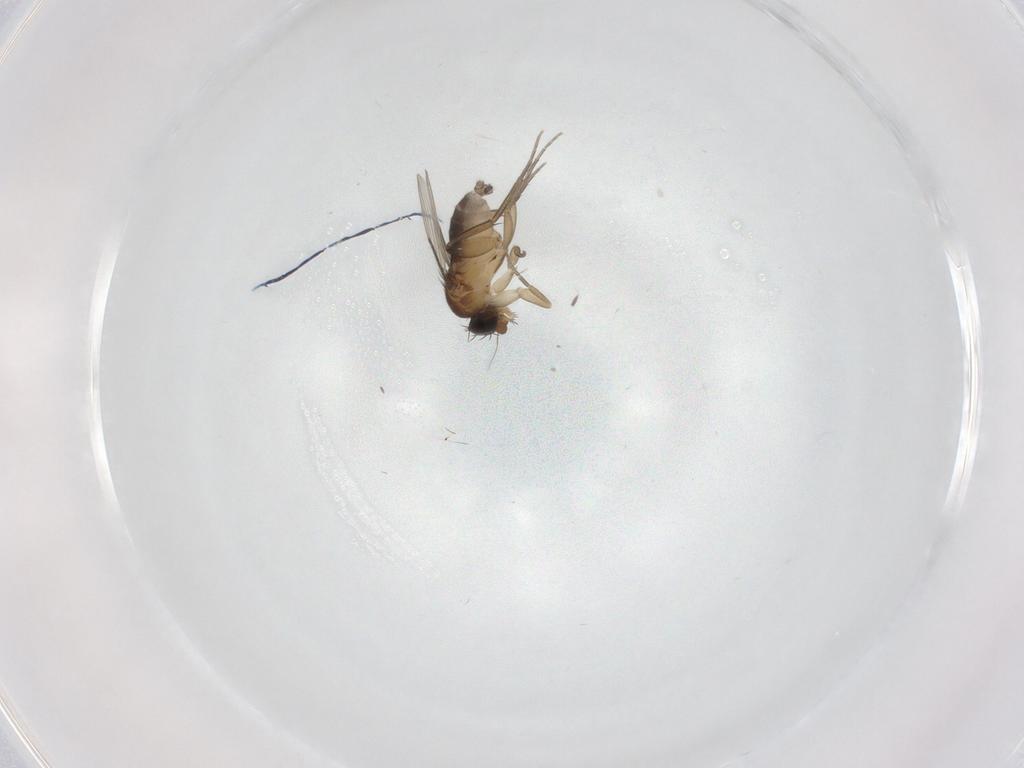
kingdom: Animalia
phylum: Arthropoda
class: Insecta
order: Diptera
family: Phoridae
